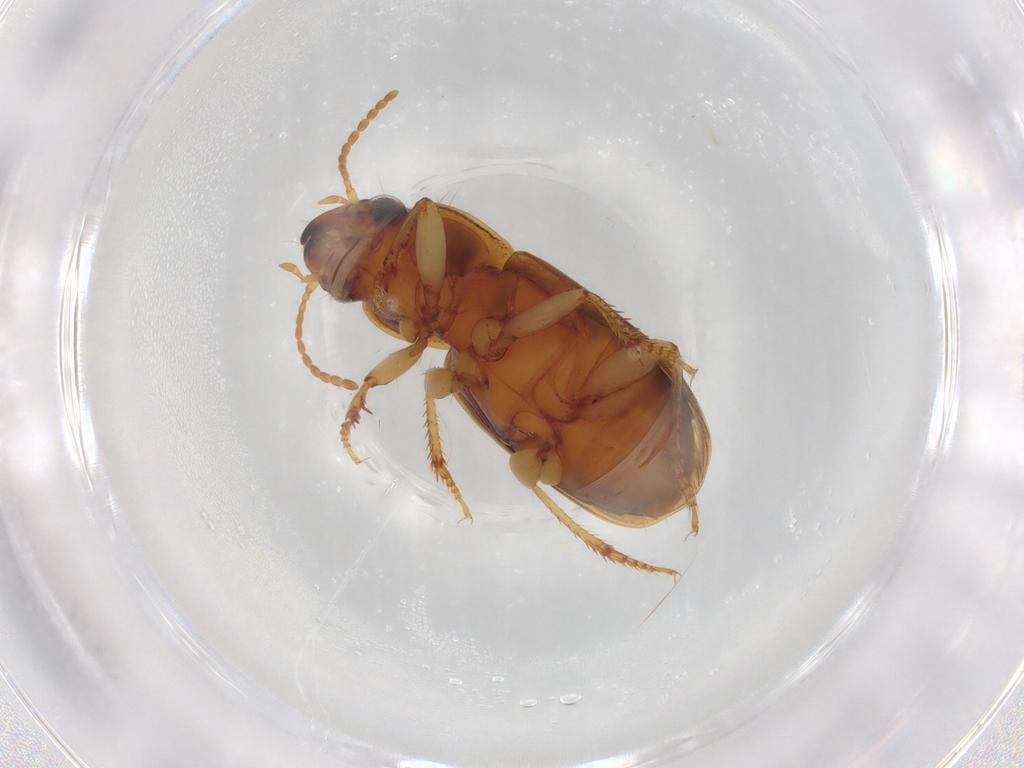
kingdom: Animalia
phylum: Arthropoda
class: Insecta
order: Coleoptera
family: Carabidae
